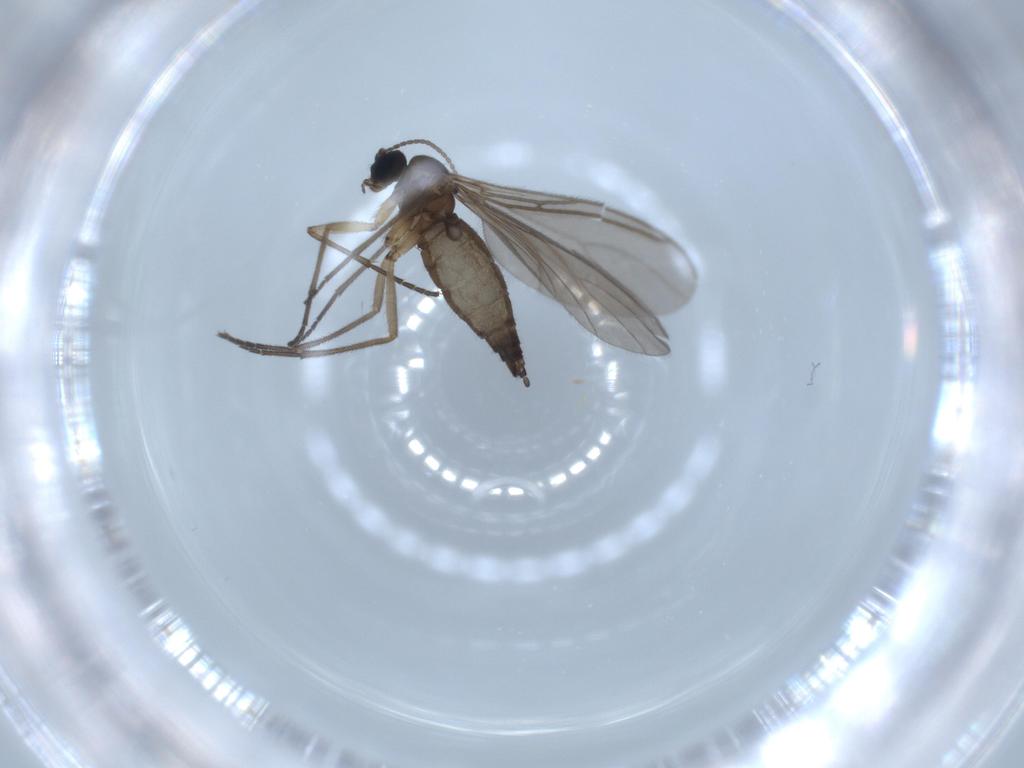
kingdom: Animalia
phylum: Arthropoda
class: Insecta
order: Diptera
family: Sciaridae
